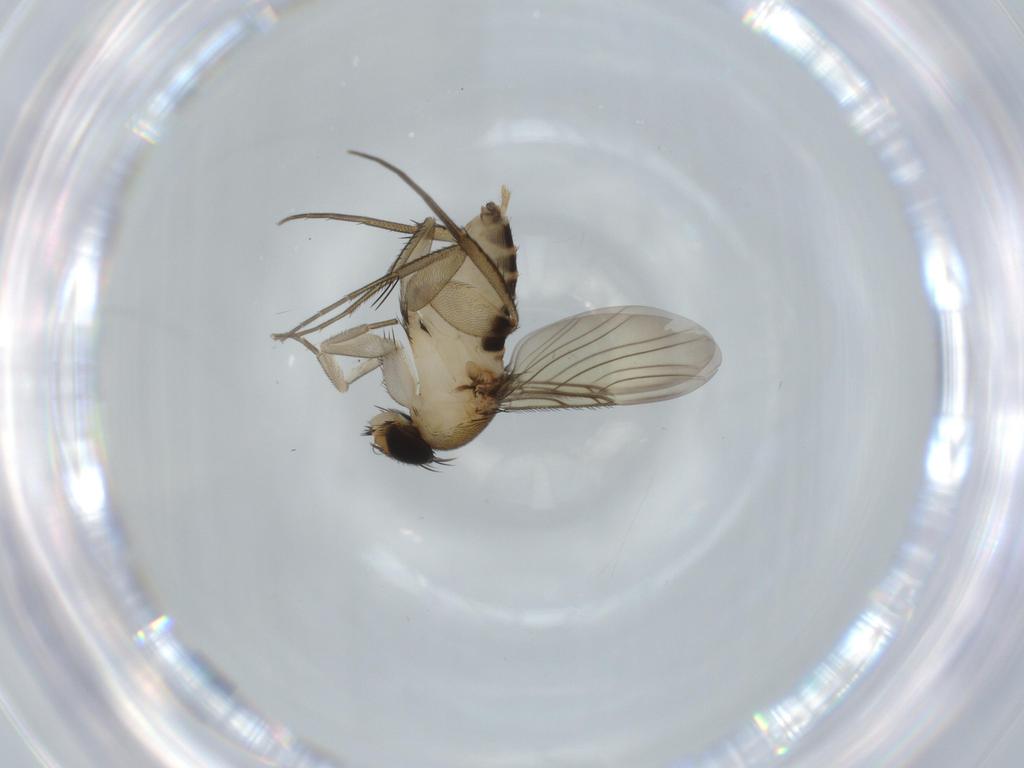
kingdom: Animalia
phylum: Arthropoda
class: Insecta
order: Diptera
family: Phoridae
